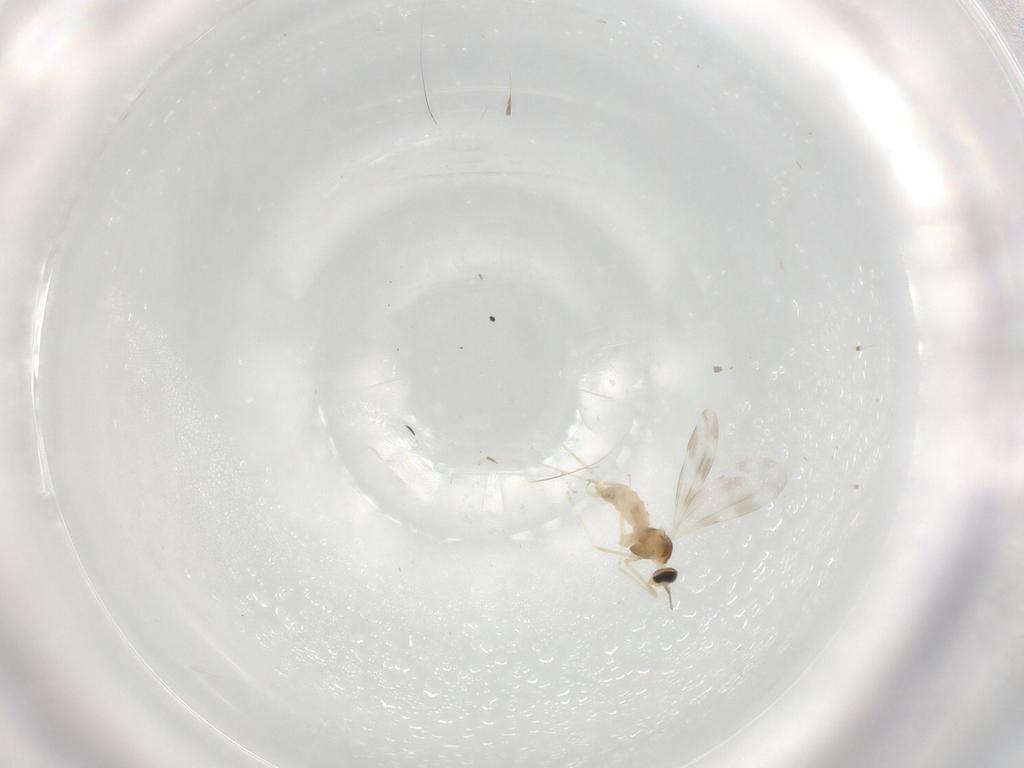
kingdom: Animalia
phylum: Arthropoda
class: Insecta
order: Diptera
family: Cecidomyiidae
